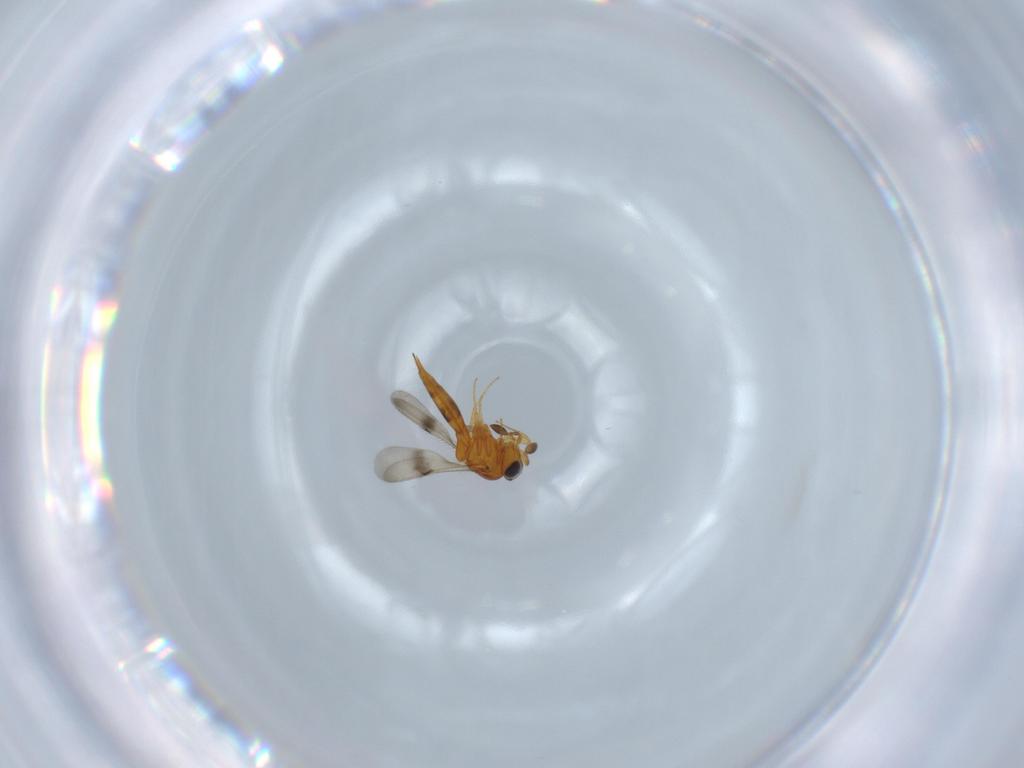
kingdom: Animalia
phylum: Arthropoda
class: Insecta
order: Hymenoptera
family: Scelionidae
